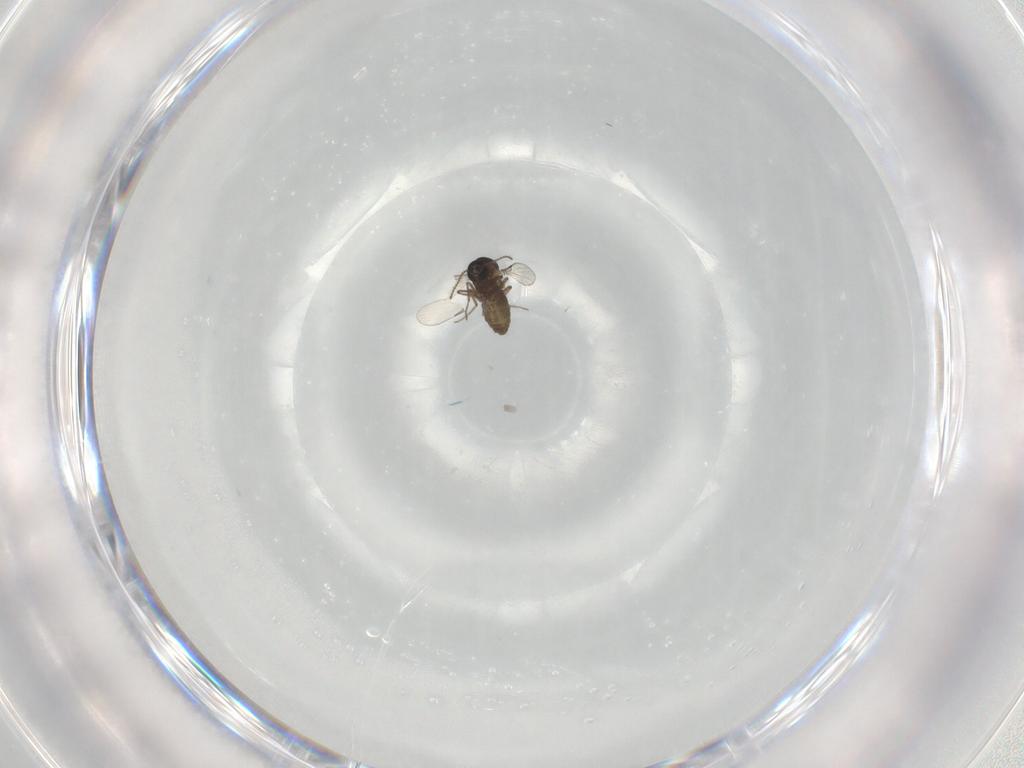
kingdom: Animalia
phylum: Arthropoda
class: Insecta
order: Diptera
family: Ceratopogonidae
